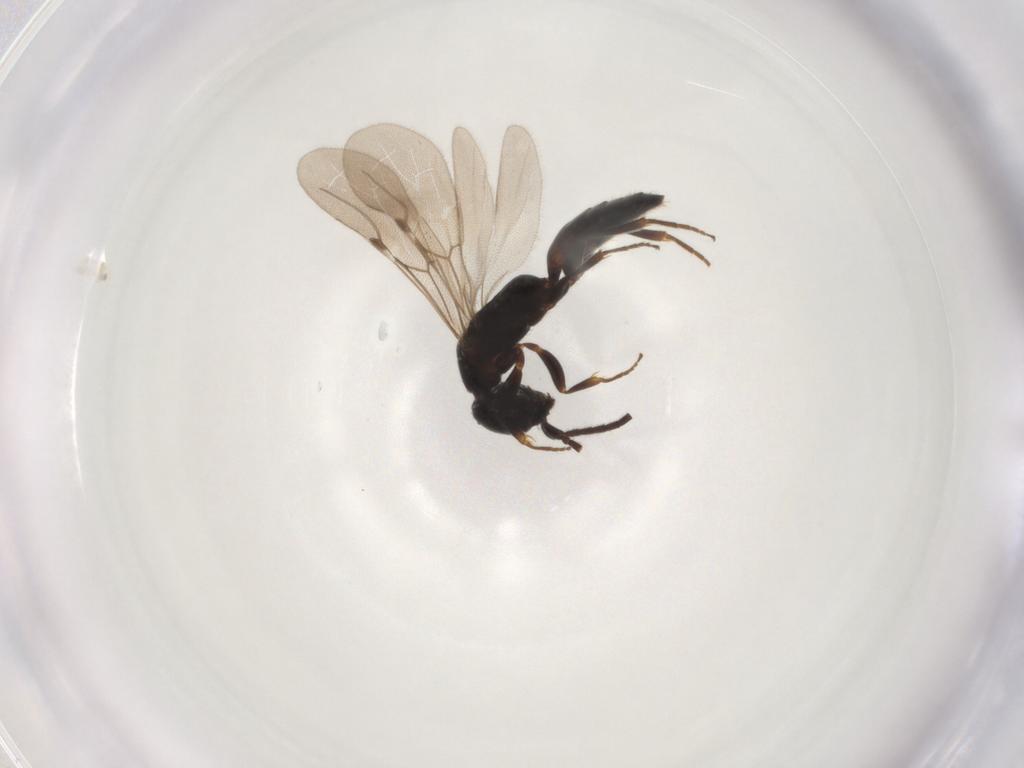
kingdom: Animalia
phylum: Arthropoda
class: Insecta
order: Hymenoptera
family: Bethylidae
